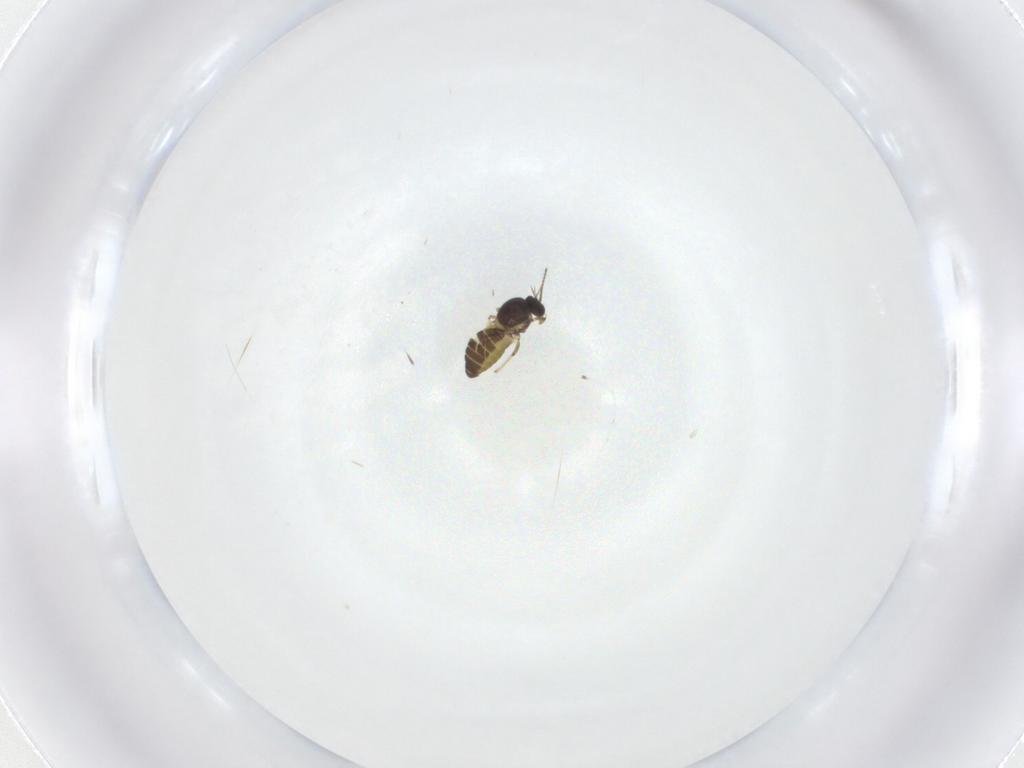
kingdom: Animalia
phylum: Arthropoda
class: Insecta
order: Diptera
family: Ceratopogonidae
